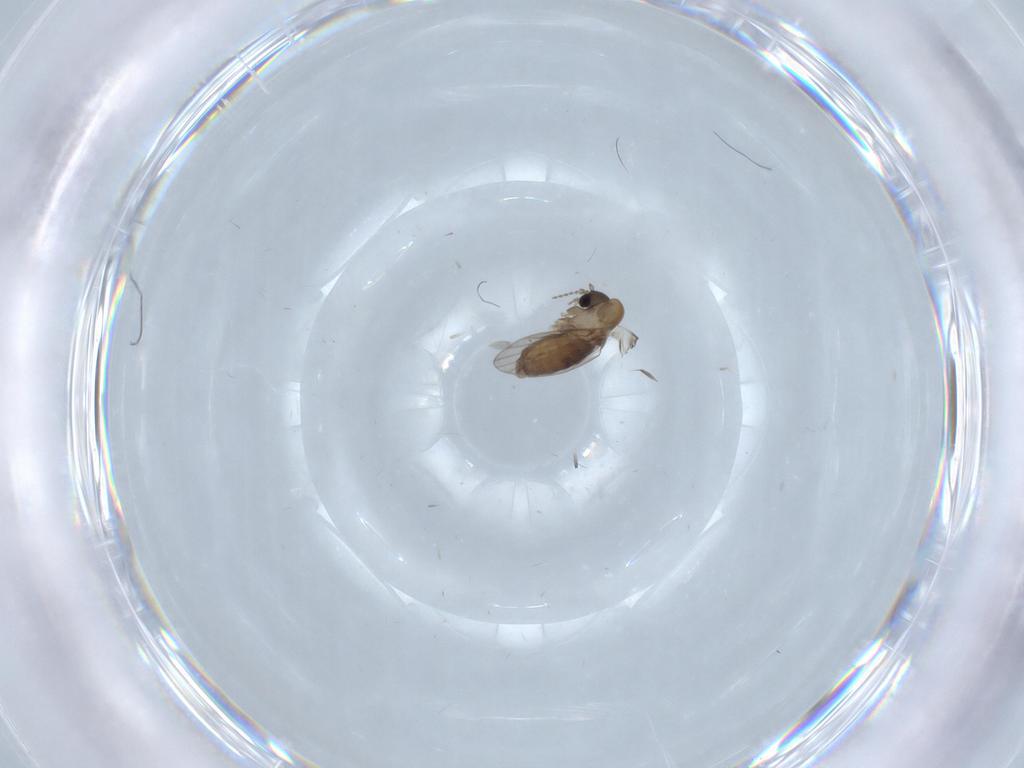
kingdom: Animalia
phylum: Arthropoda
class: Insecta
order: Diptera
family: Psychodidae
